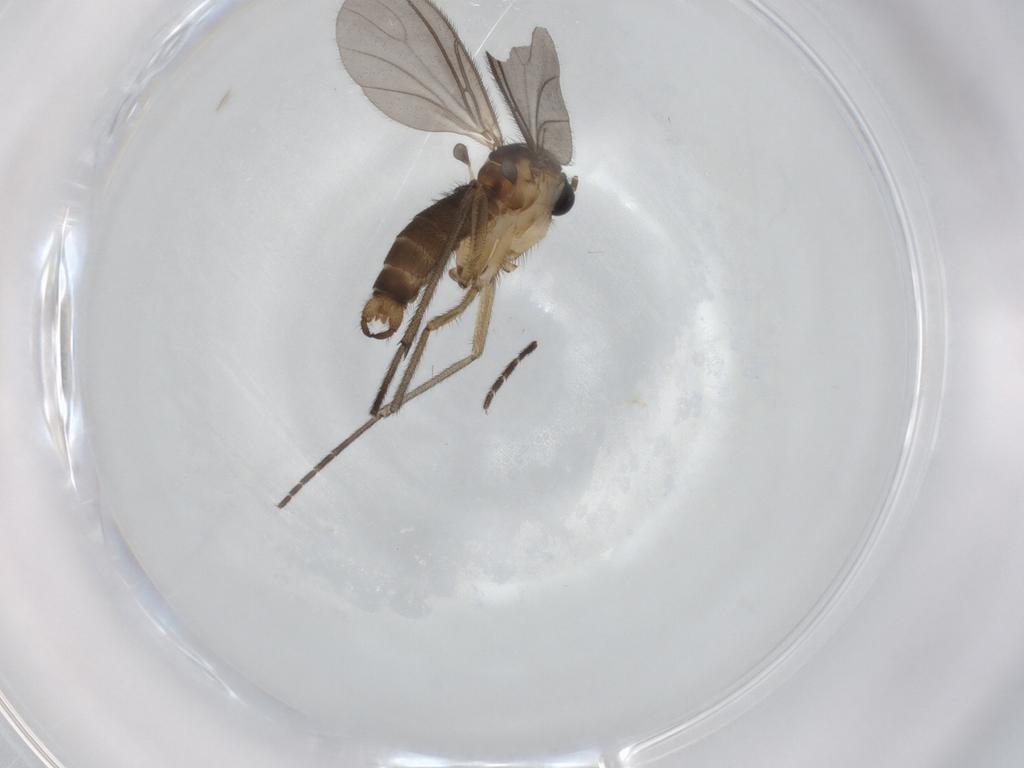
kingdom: Animalia
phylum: Arthropoda
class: Insecta
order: Diptera
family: Sciaridae
